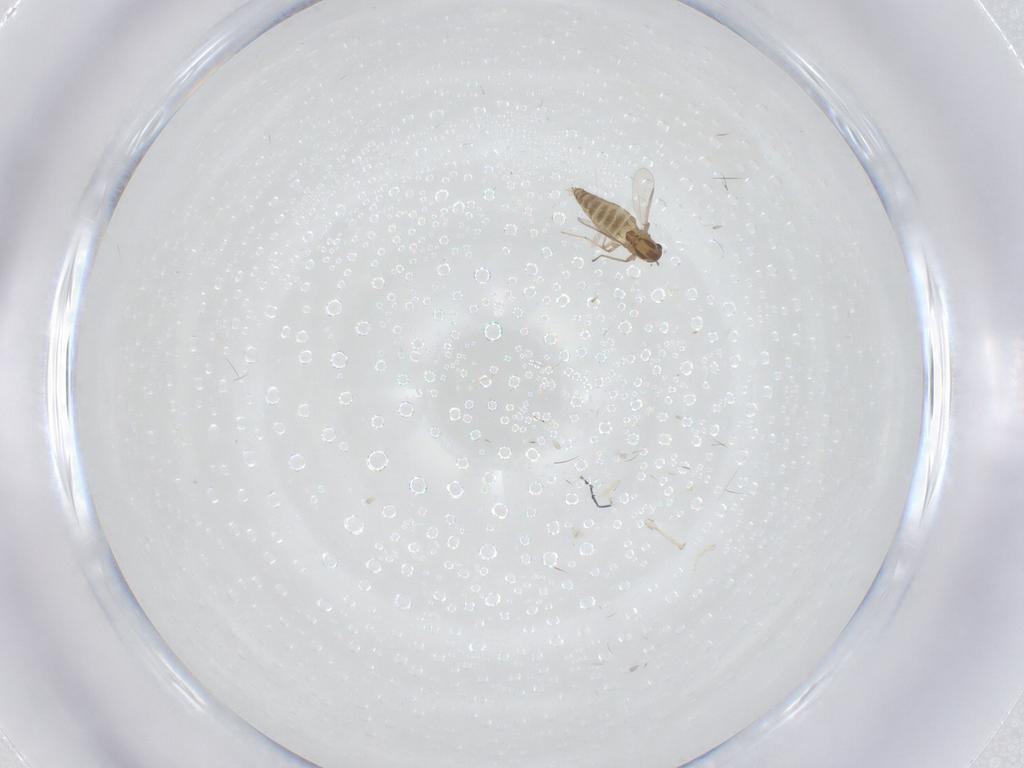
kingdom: Animalia
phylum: Arthropoda
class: Insecta
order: Diptera
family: Chironomidae
